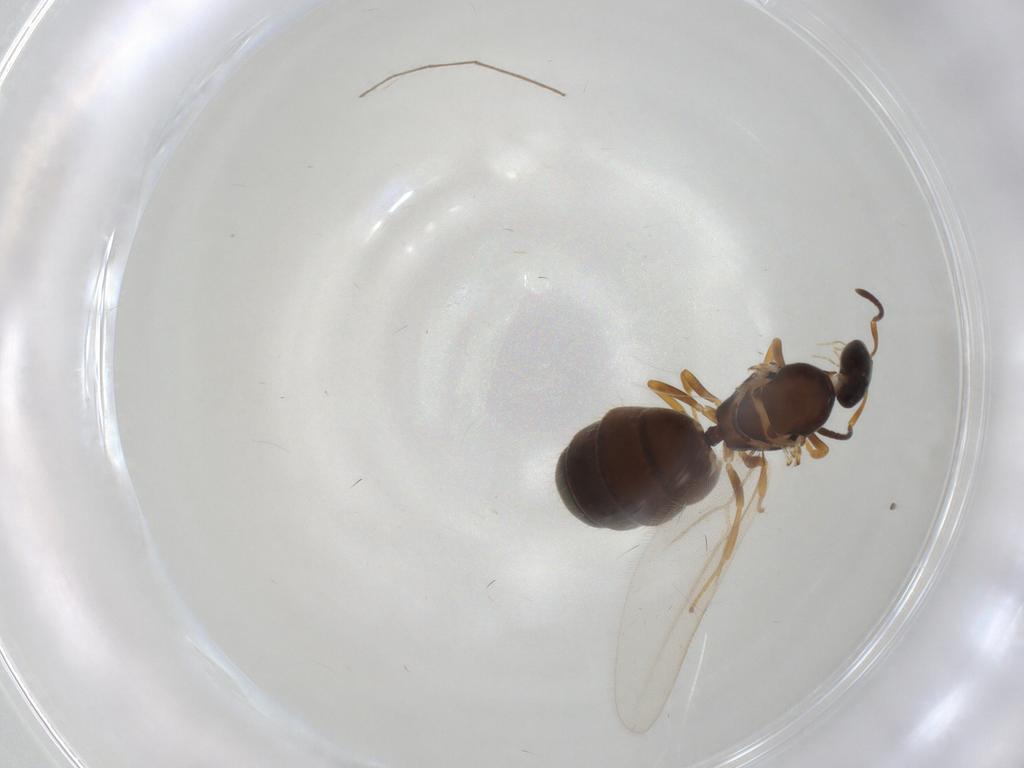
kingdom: Animalia
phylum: Arthropoda
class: Insecta
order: Hymenoptera
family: Formicidae
